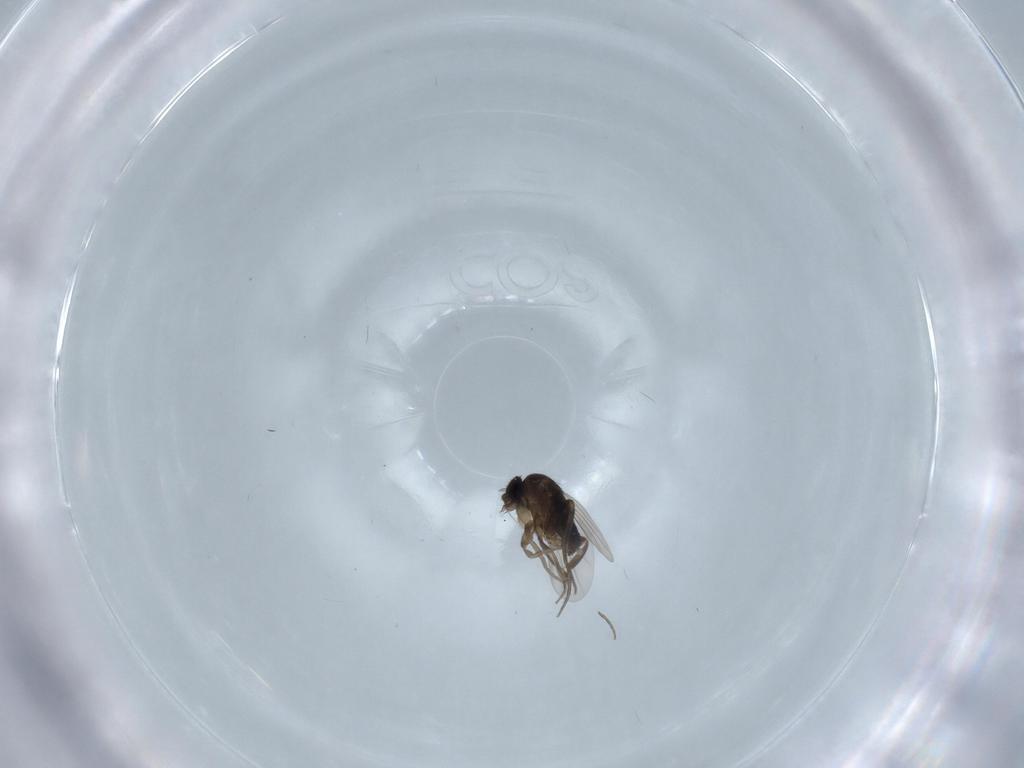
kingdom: Animalia
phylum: Arthropoda
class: Insecta
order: Diptera
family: Phoridae
